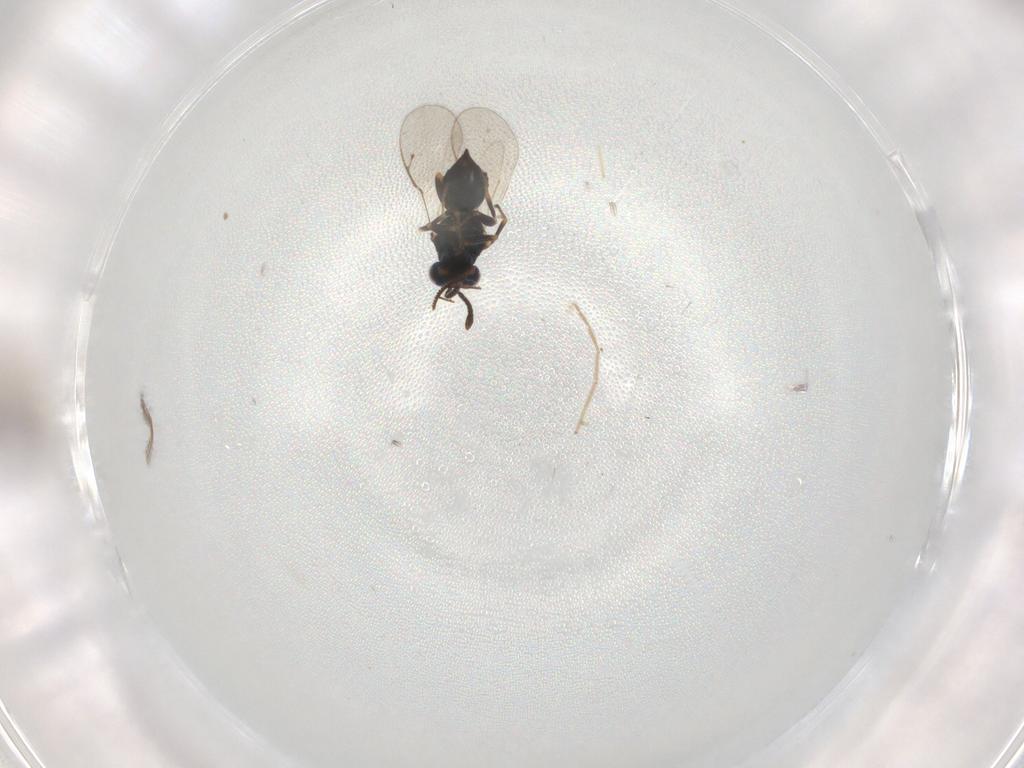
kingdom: Animalia
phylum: Arthropoda
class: Insecta
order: Hymenoptera
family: Pteromalidae
